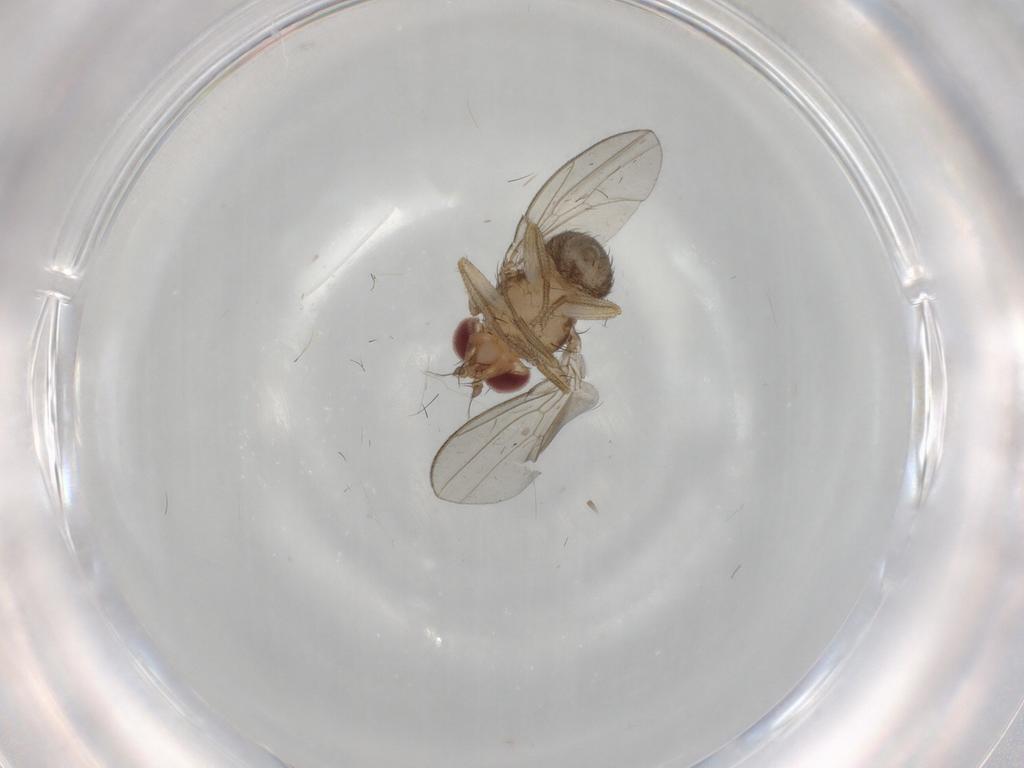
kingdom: Animalia
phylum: Arthropoda
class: Insecta
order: Diptera
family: Drosophilidae
